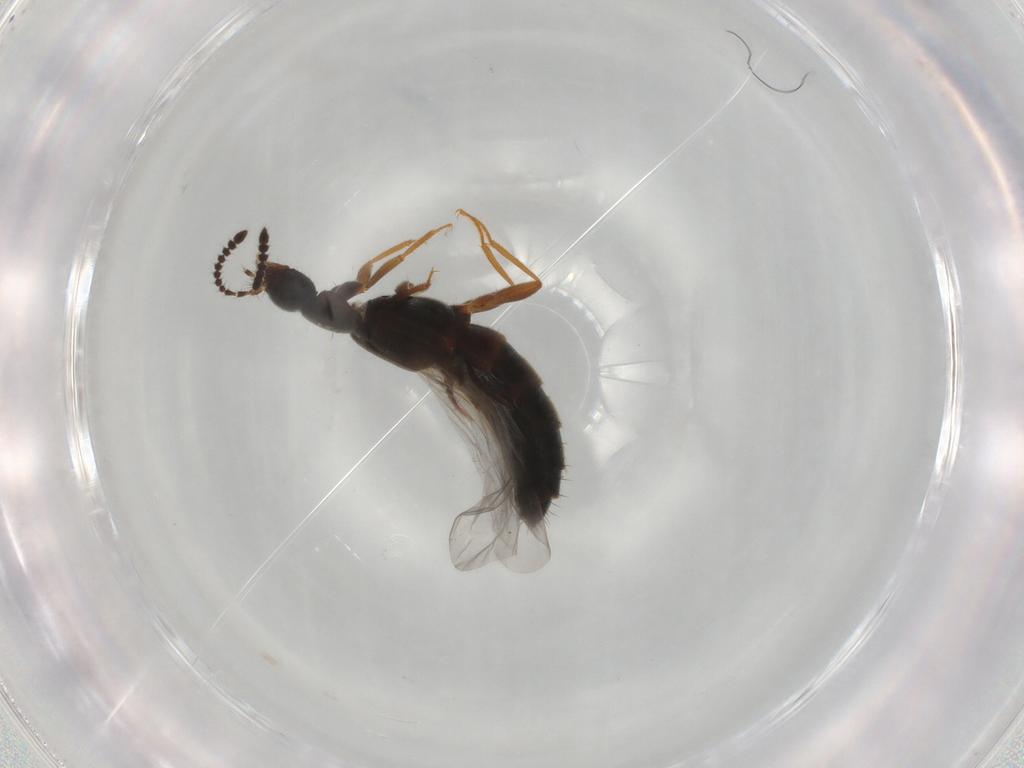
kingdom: Animalia
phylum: Arthropoda
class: Insecta
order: Coleoptera
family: Staphylinidae
